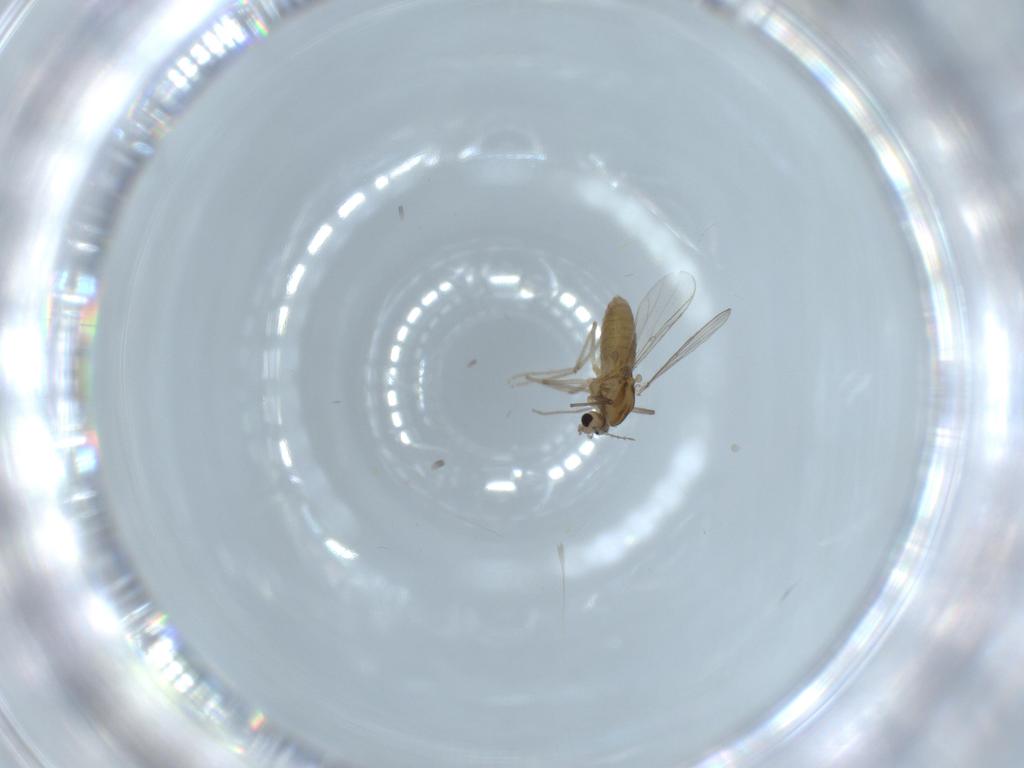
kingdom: Animalia
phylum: Arthropoda
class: Insecta
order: Diptera
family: Chironomidae
